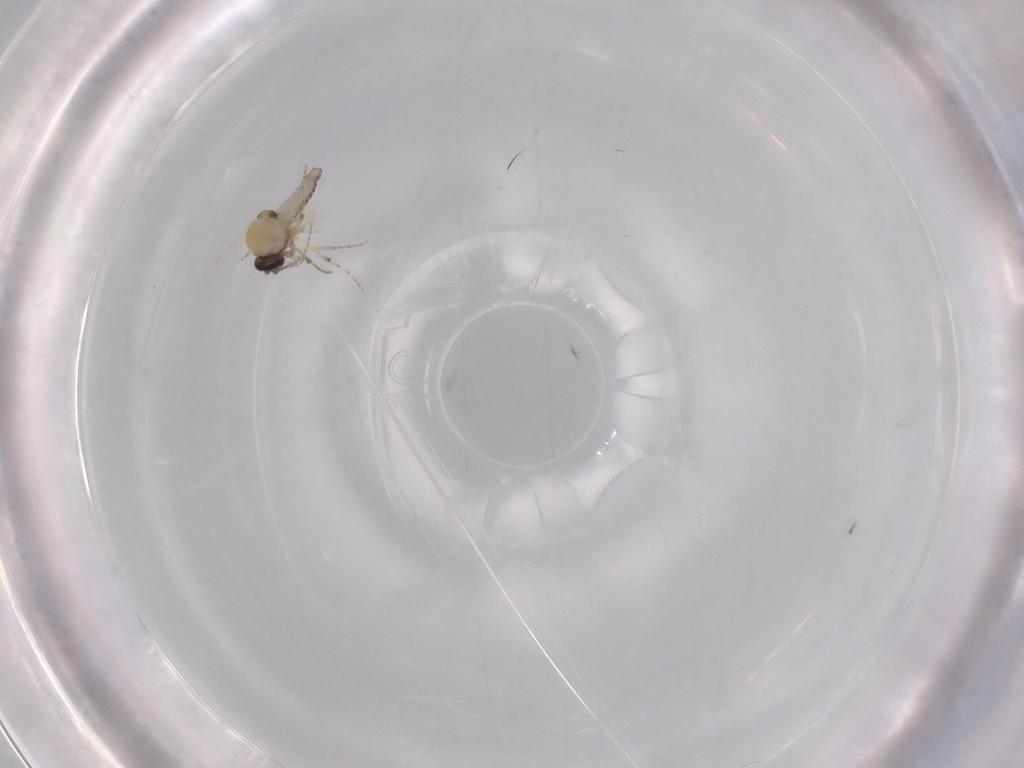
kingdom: Animalia
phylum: Arthropoda
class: Insecta
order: Diptera
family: Ceratopogonidae
